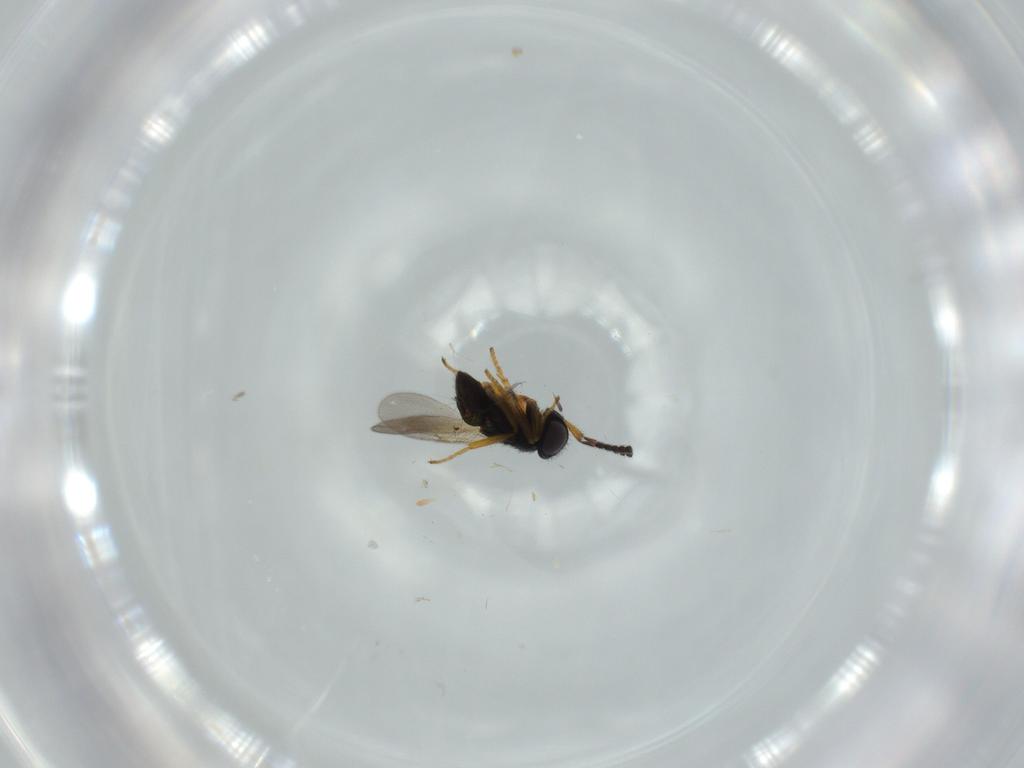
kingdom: Animalia
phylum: Arthropoda
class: Insecta
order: Hymenoptera
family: Encyrtidae
